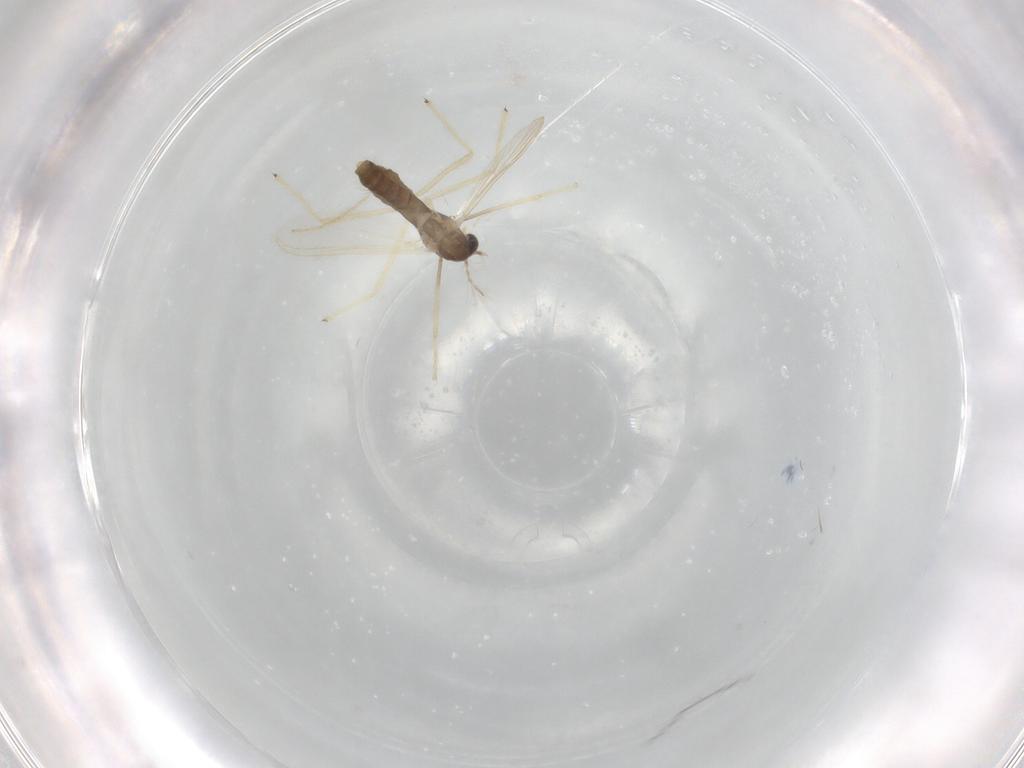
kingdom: Animalia
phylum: Arthropoda
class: Insecta
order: Diptera
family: Chironomidae
